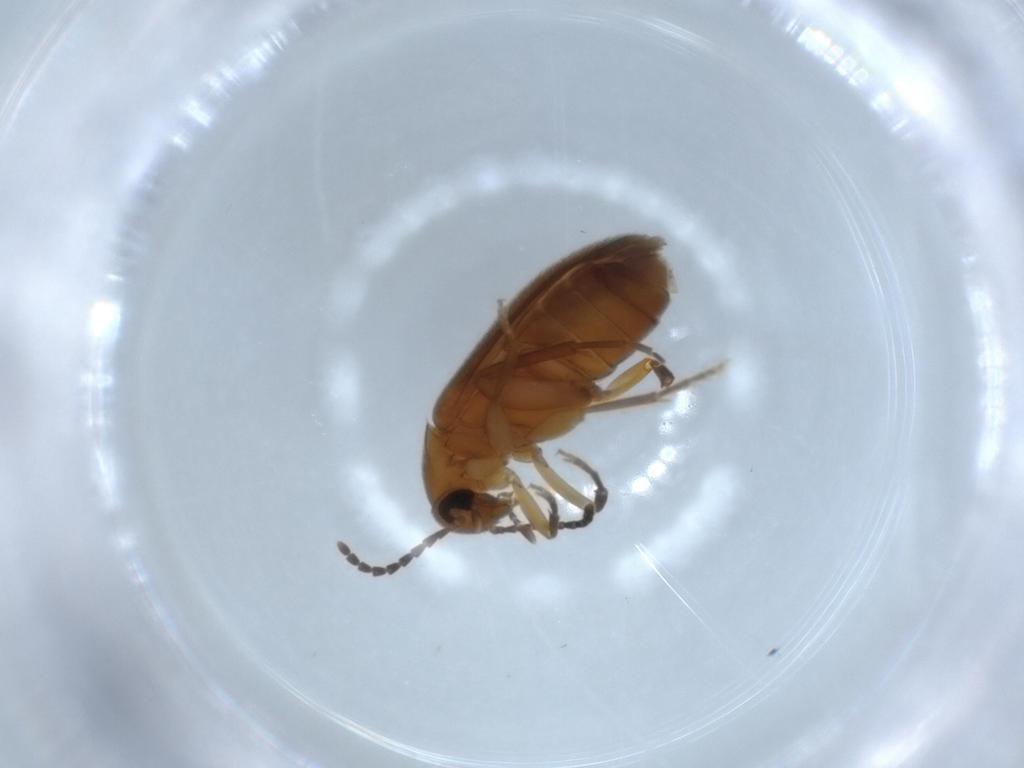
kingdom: Animalia
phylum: Arthropoda
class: Insecta
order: Coleoptera
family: Scraptiidae
